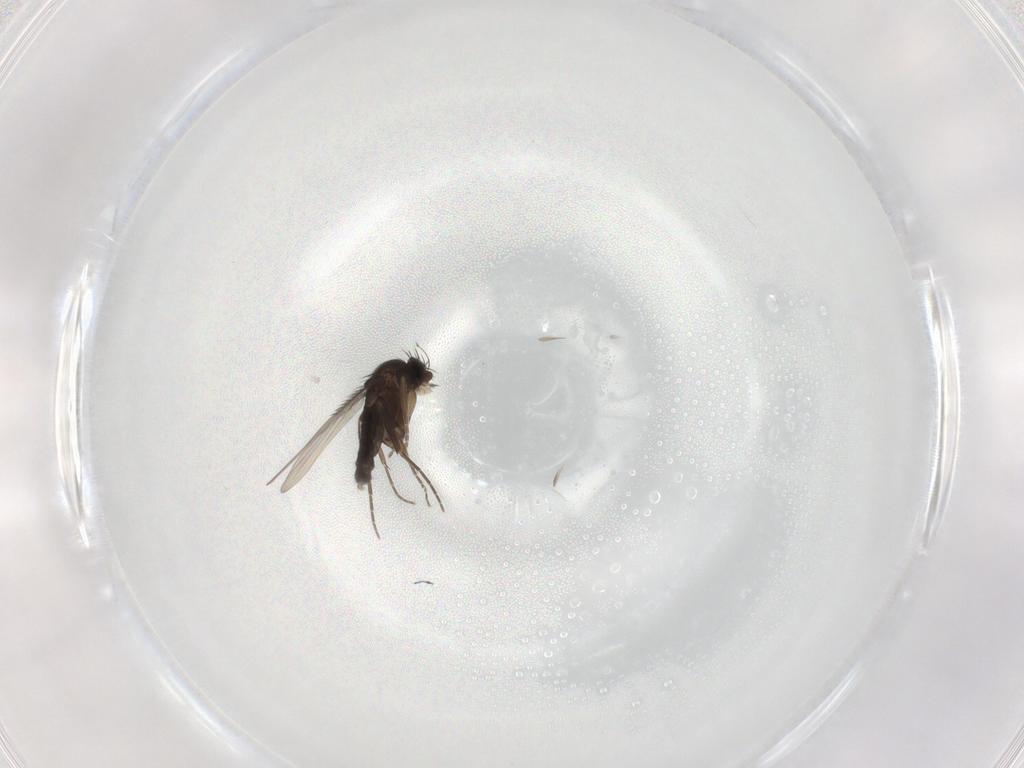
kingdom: Animalia
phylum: Arthropoda
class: Insecta
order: Diptera
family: Phoridae
